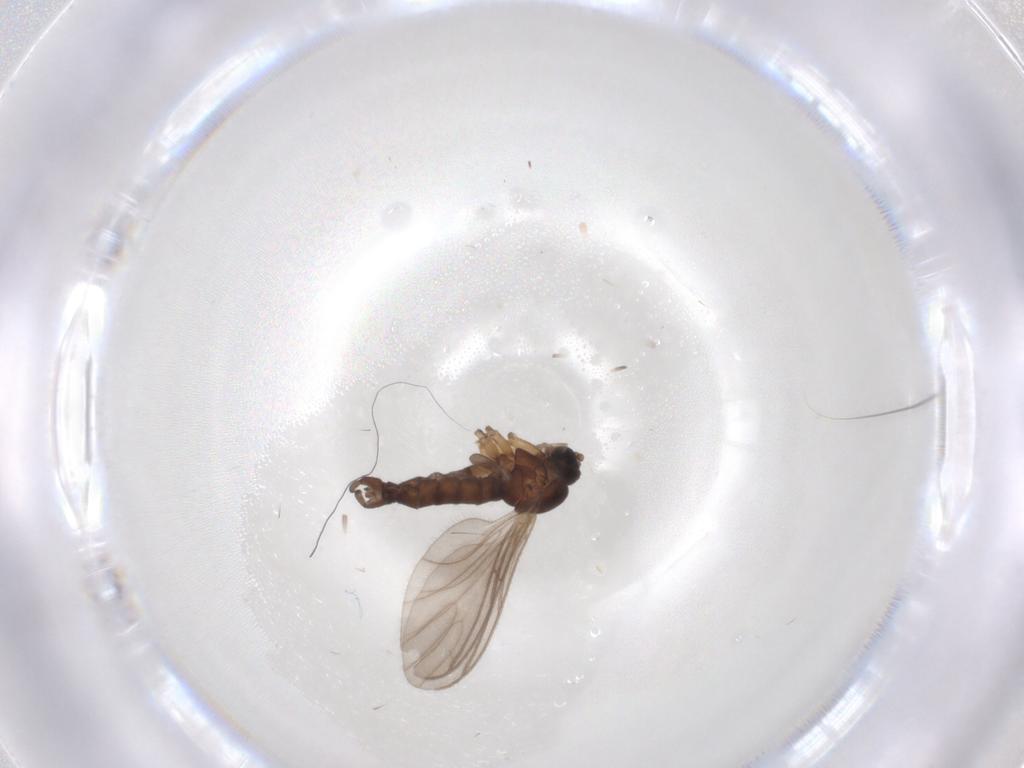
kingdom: Animalia
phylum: Arthropoda
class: Insecta
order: Diptera
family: Sciaridae
